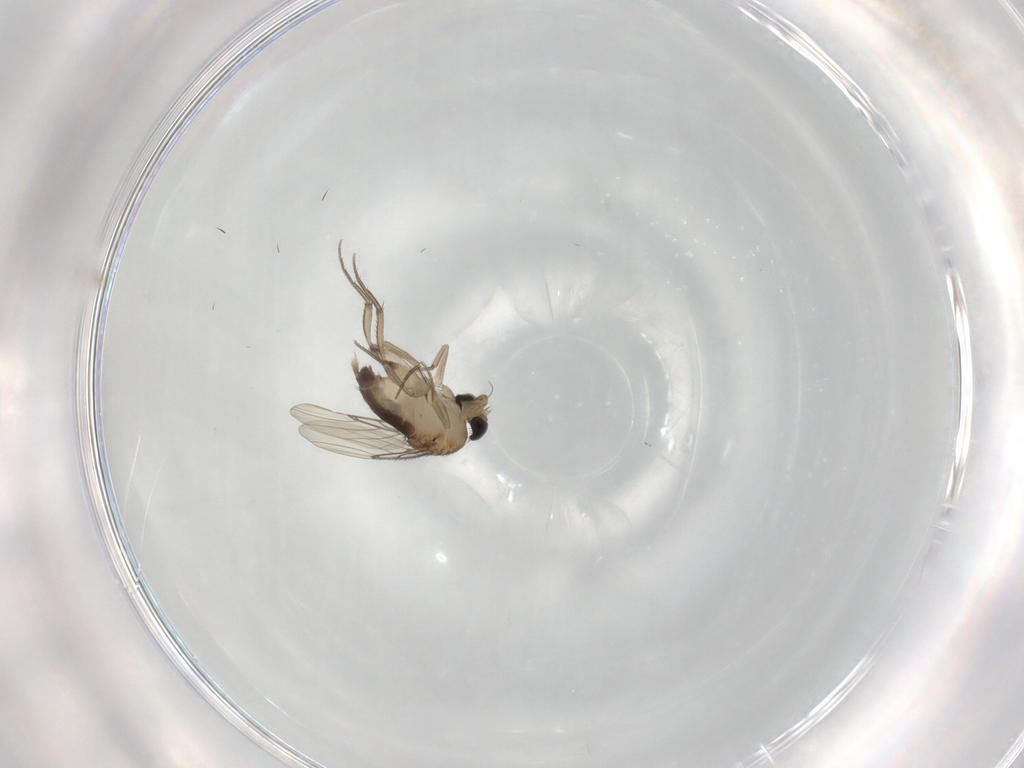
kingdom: Animalia
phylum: Arthropoda
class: Insecta
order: Diptera
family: Phoridae
